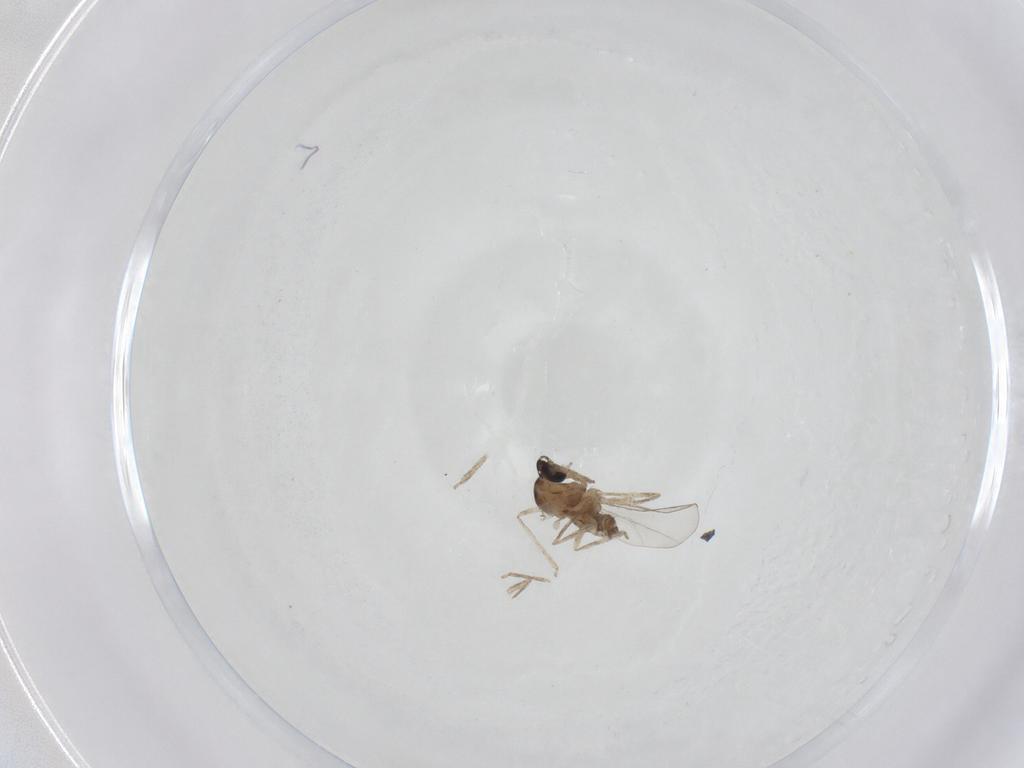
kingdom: Animalia
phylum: Arthropoda
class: Insecta
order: Diptera
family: Cecidomyiidae
